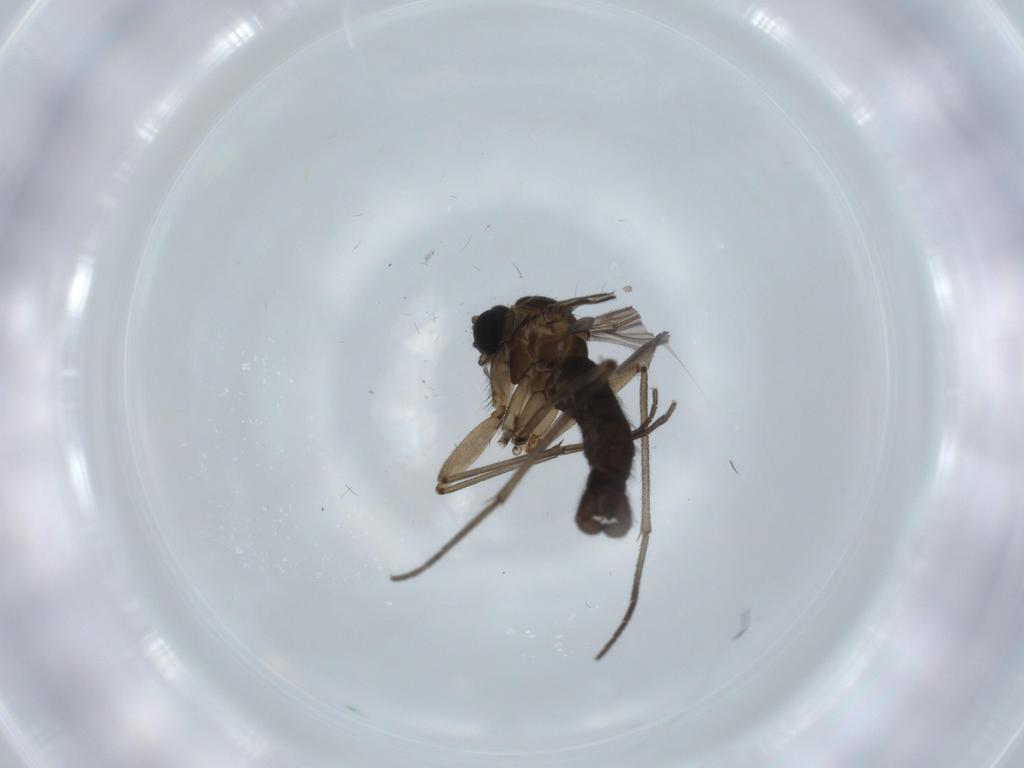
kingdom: Animalia
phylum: Arthropoda
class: Insecta
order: Diptera
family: Sciaridae
